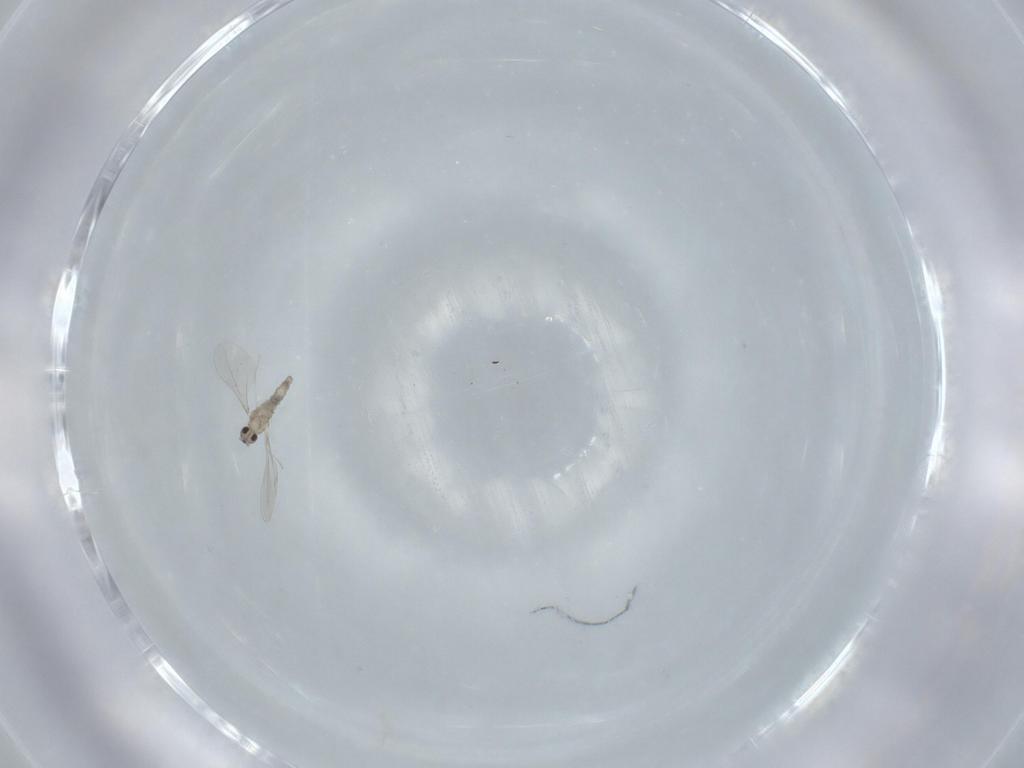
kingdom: Animalia
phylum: Arthropoda
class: Insecta
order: Diptera
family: Cecidomyiidae
